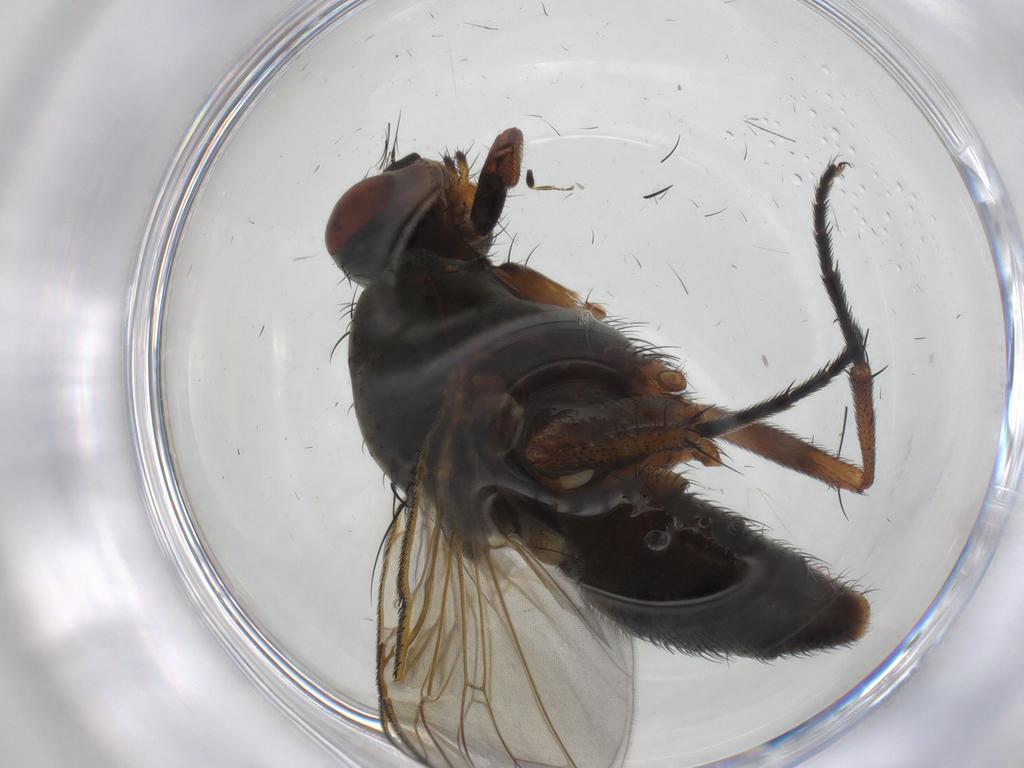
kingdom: Animalia
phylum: Arthropoda
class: Insecta
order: Diptera
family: Anthomyiidae
